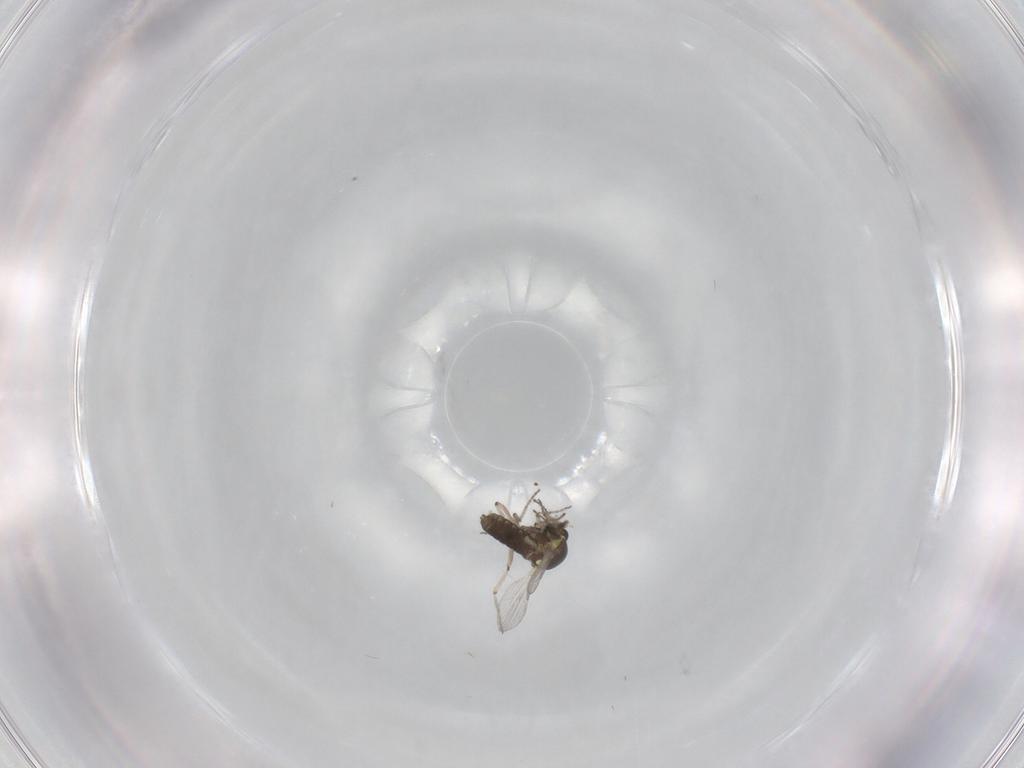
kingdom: Animalia
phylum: Arthropoda
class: Insecta
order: Diptera
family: Ceratopogonidae
